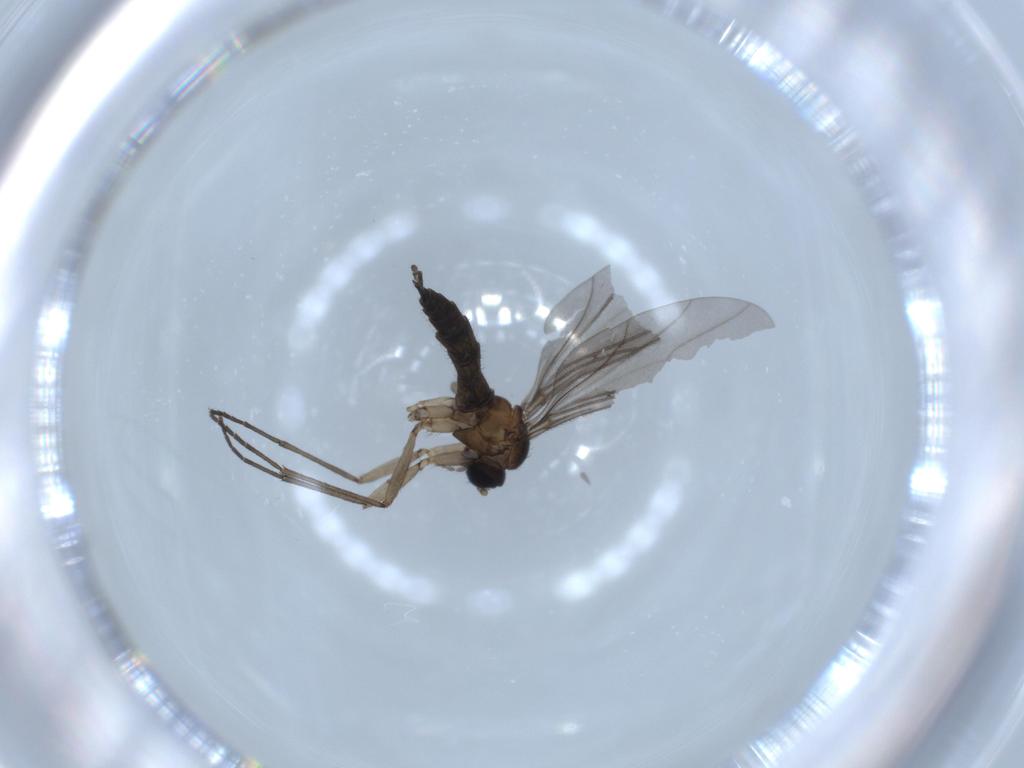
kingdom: Animalia
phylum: Arthropoda
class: Insecta
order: Diptera
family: Sciaridae
